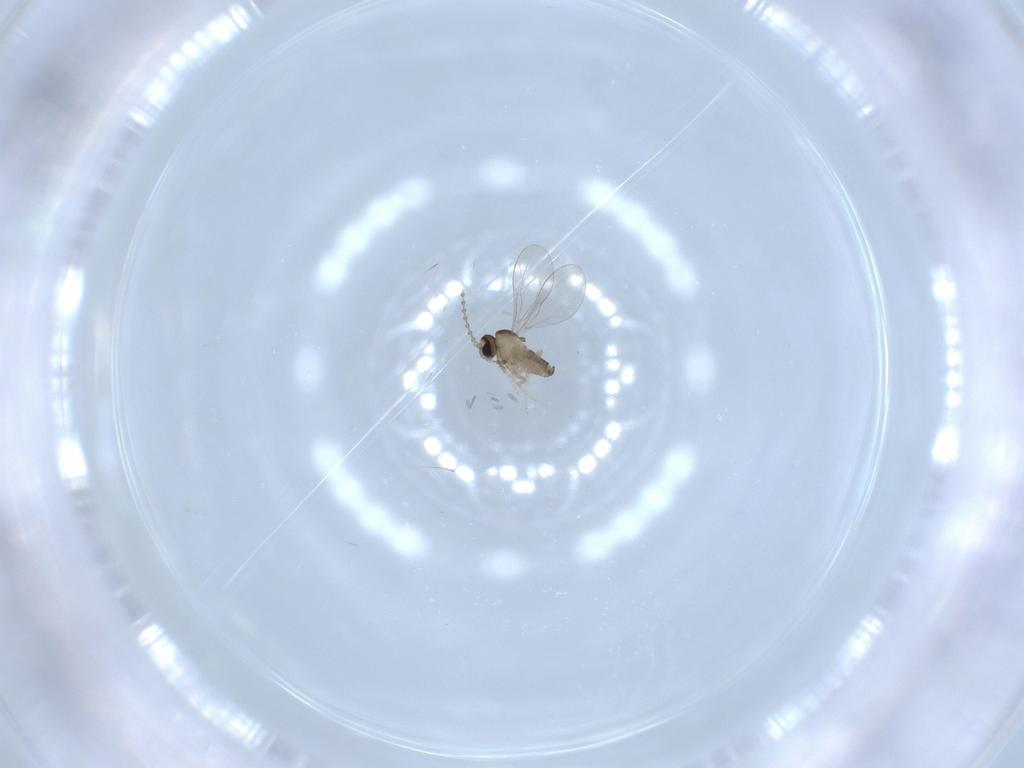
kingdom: Animalia
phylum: Arthropoda
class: Insecta
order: Diptera
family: Cecidomyiidae
